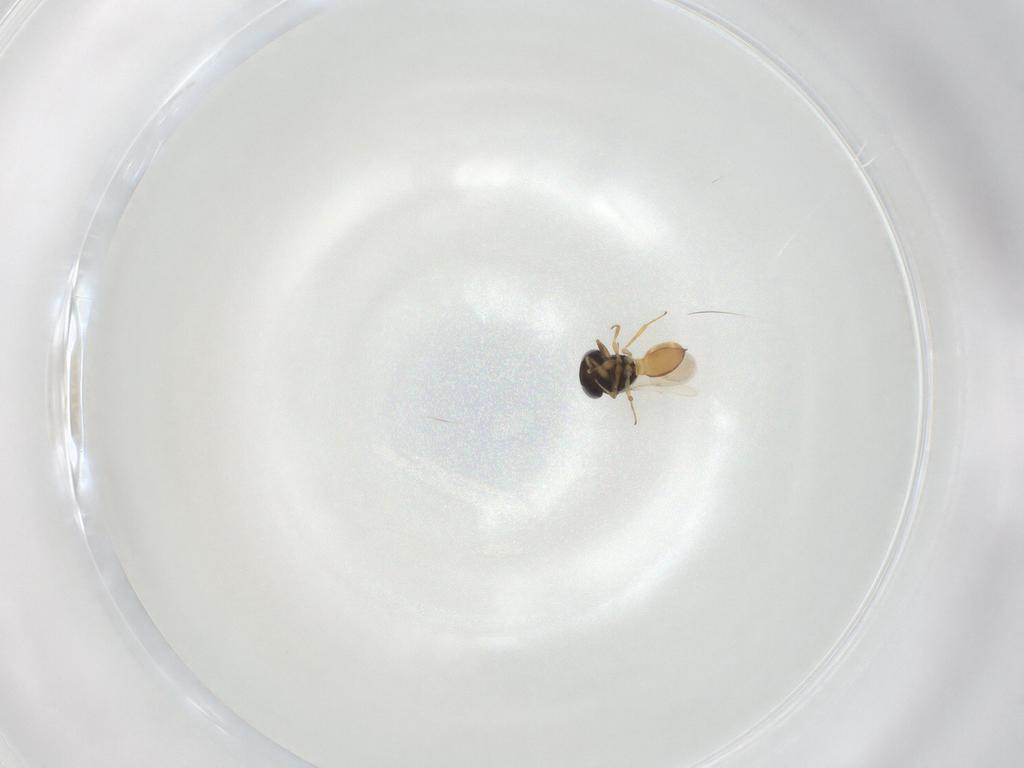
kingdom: Animalia
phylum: Arthropoda
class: Insecta
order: Hymenoptera
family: Scelionidae
